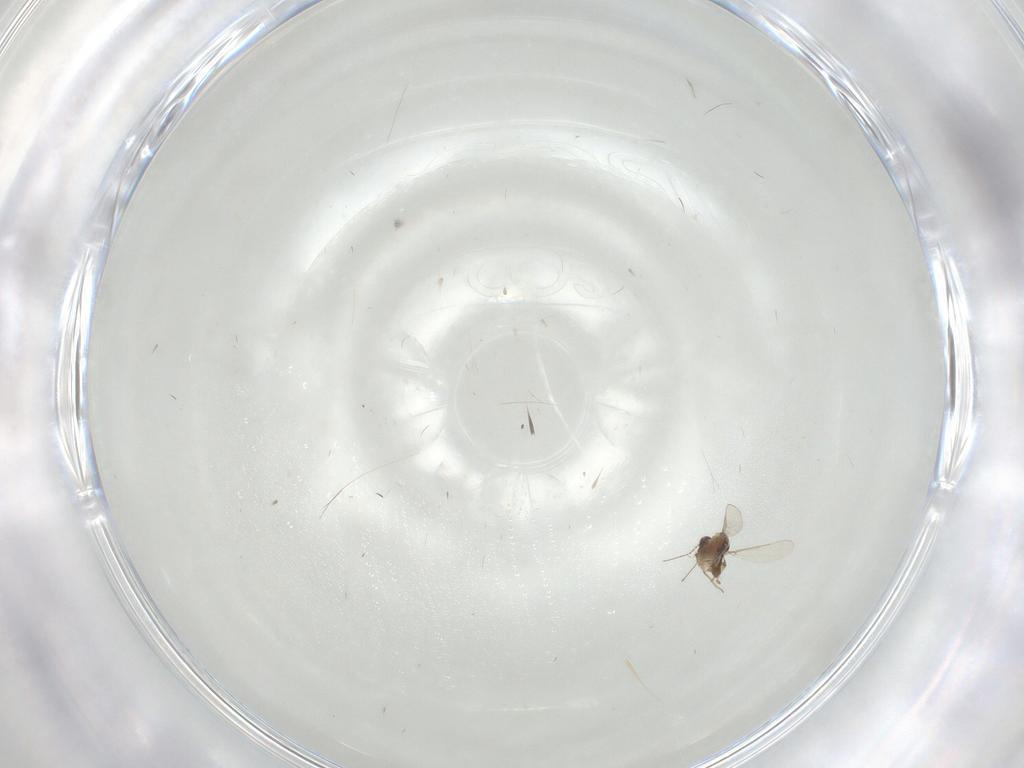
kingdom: Animalia
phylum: Arthropoda
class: Insecta
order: Diptera
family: Chironomidae
